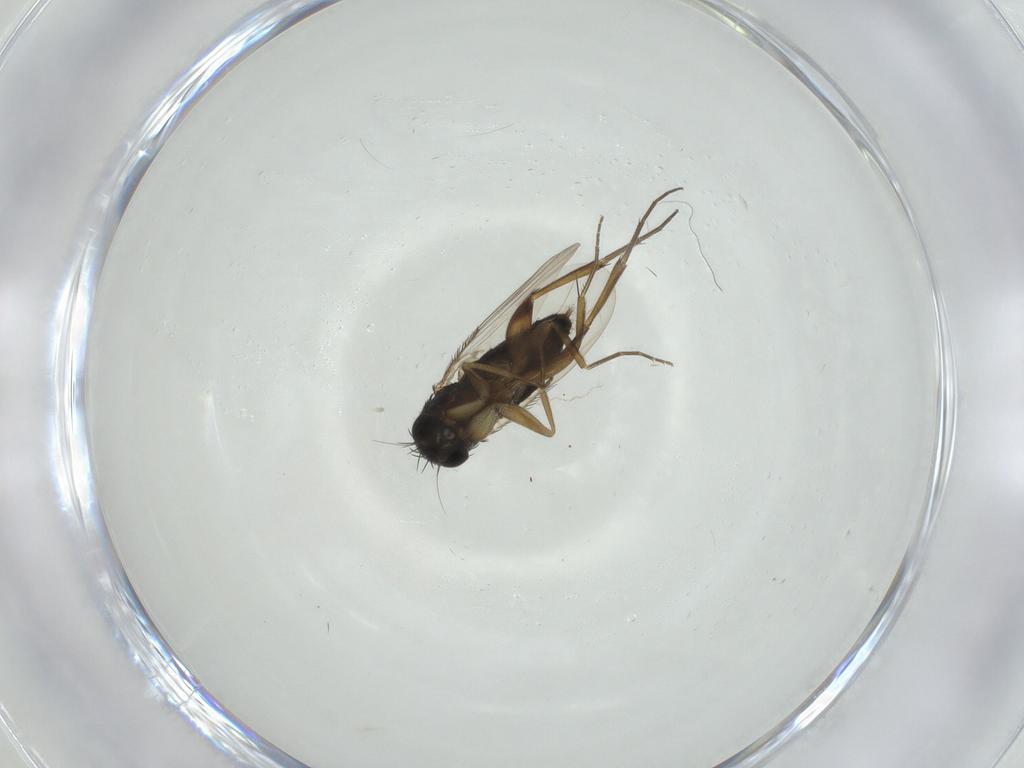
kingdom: Animalia
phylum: Arthropoda
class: Insecta
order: Diptera
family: Phoridae
